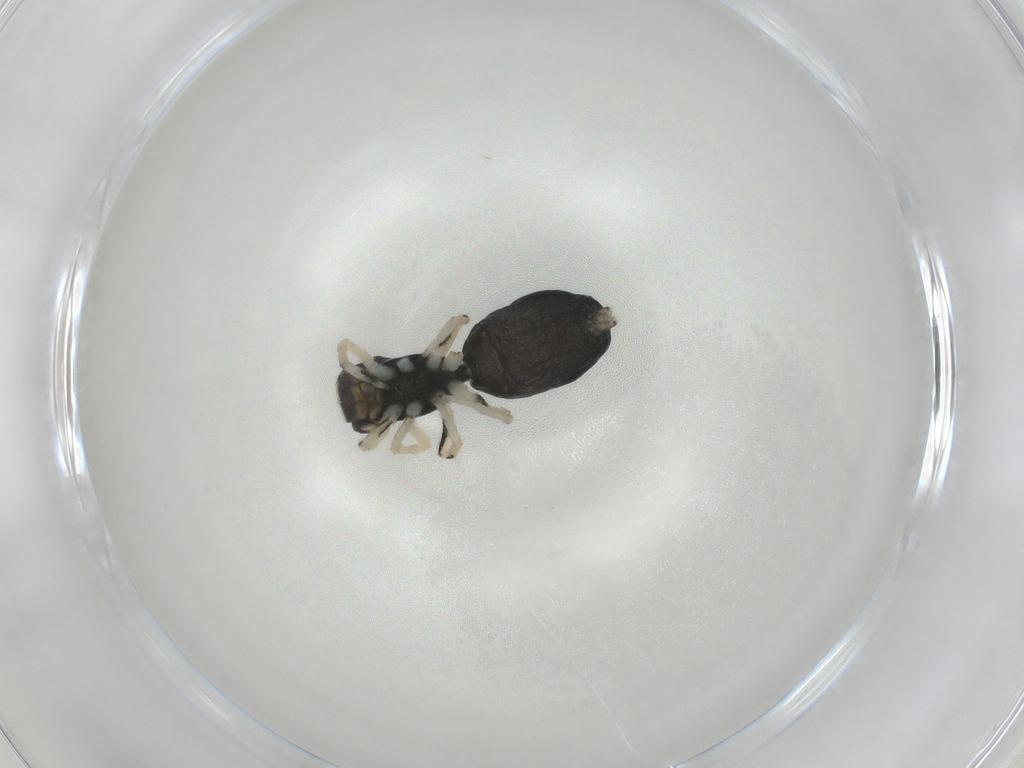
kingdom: Animalia
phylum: Arthropoda
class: Arachnida
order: Araneae
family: Salticidae
